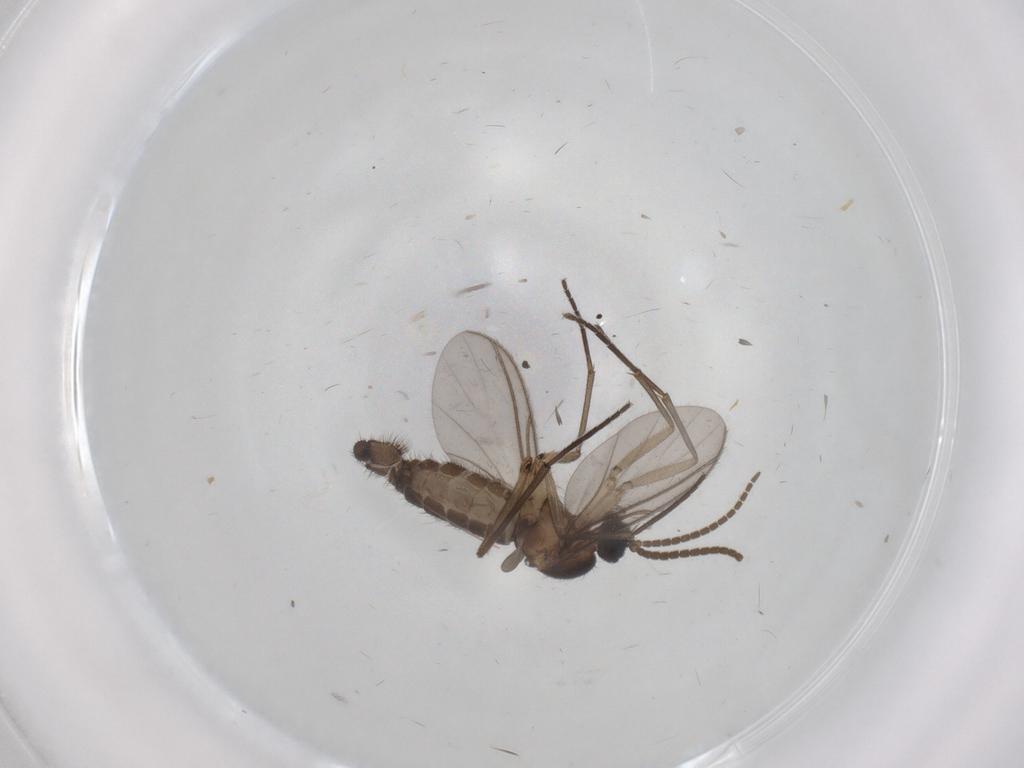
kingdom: Animalia
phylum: Arthropoda
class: Insecta
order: Diptera
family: Sciaridae
